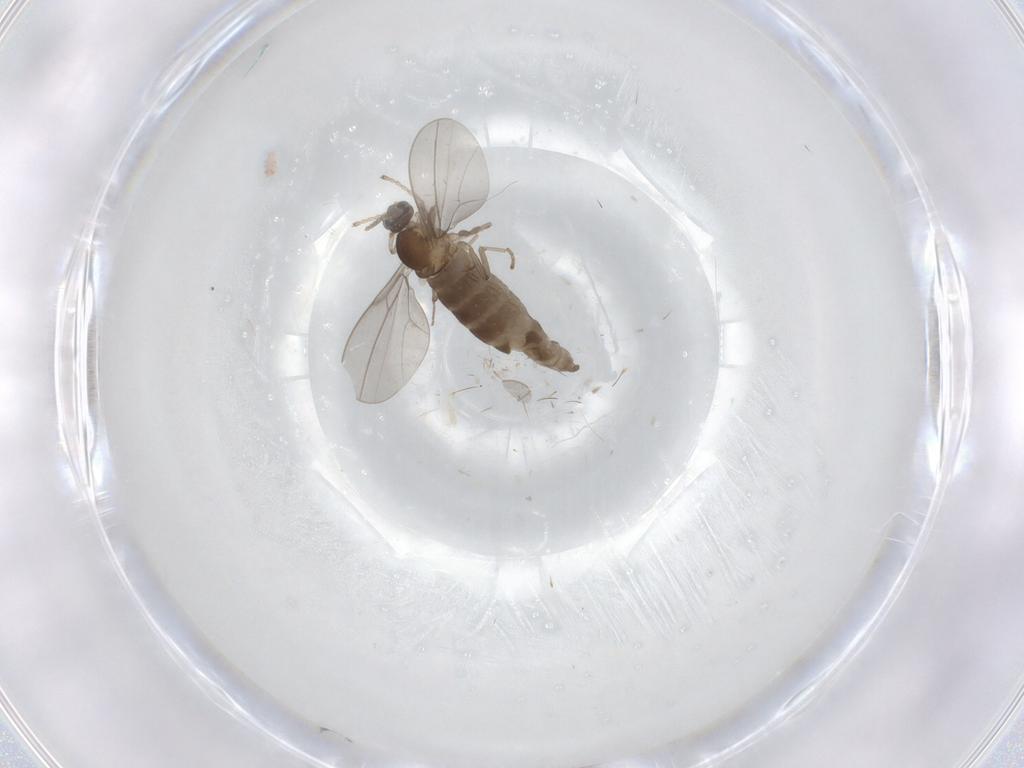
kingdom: Animalia
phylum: Arthropoda
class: Insecta
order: Diptera
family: Cecidomyiidae
